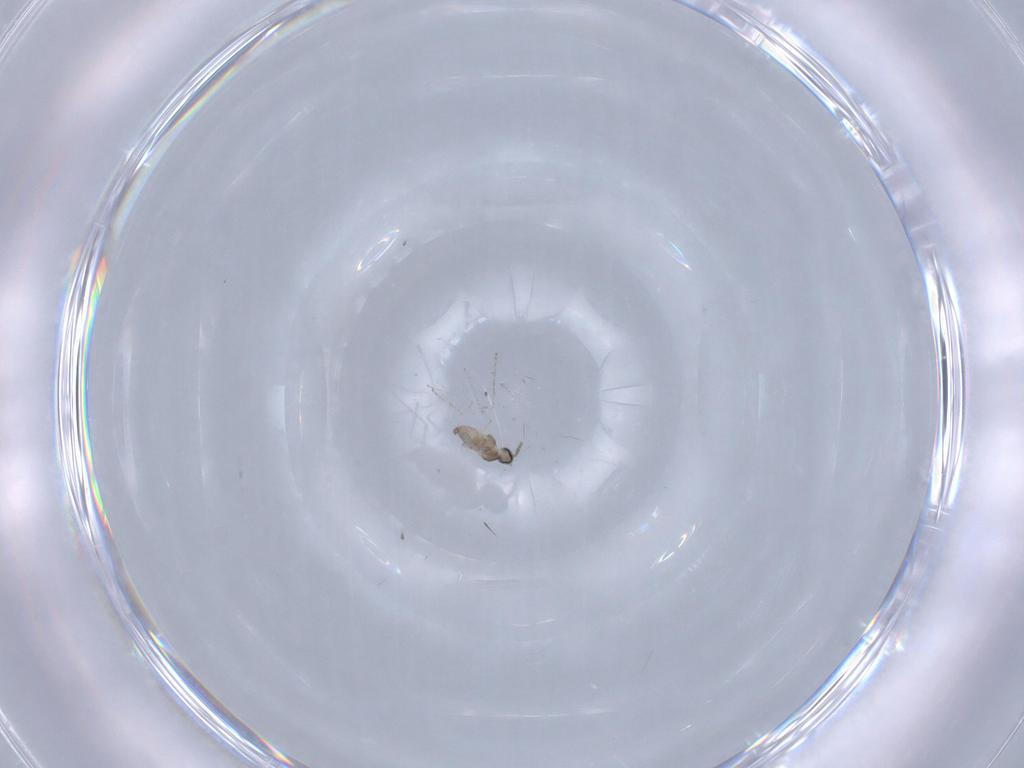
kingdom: Animalia
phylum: Arthropoda
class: Insecta
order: Diptera
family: Cecidomyiidae
